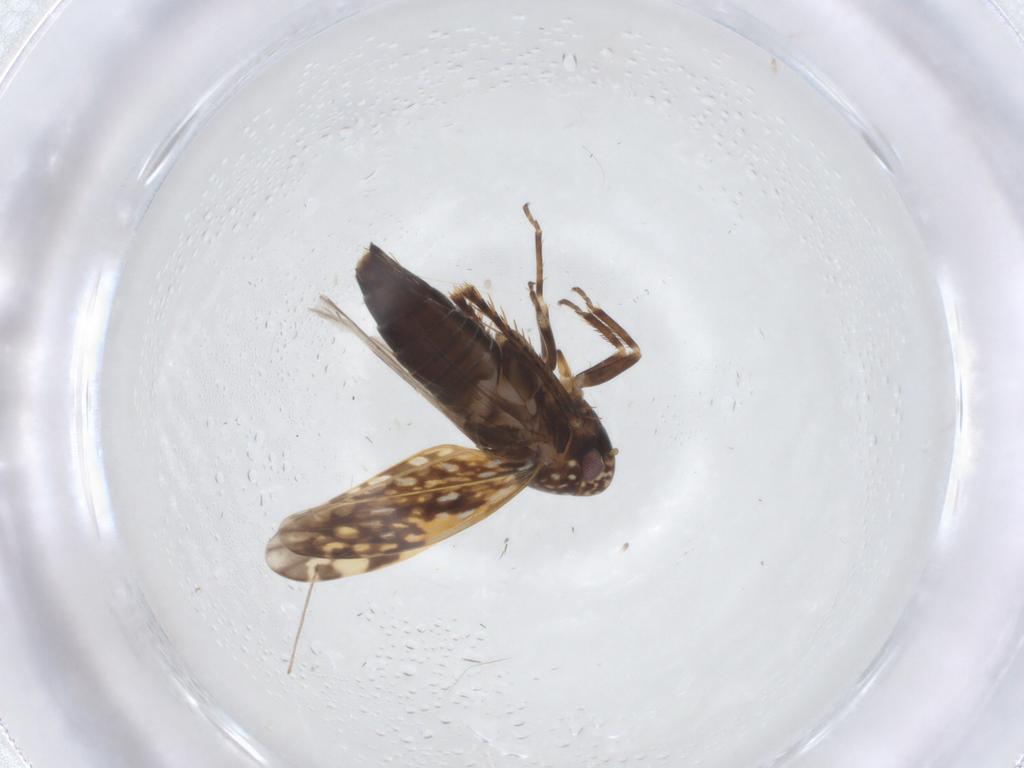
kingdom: Animalia
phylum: Arthropoda
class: Insecta
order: Hemiptera
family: Cicadellidae
